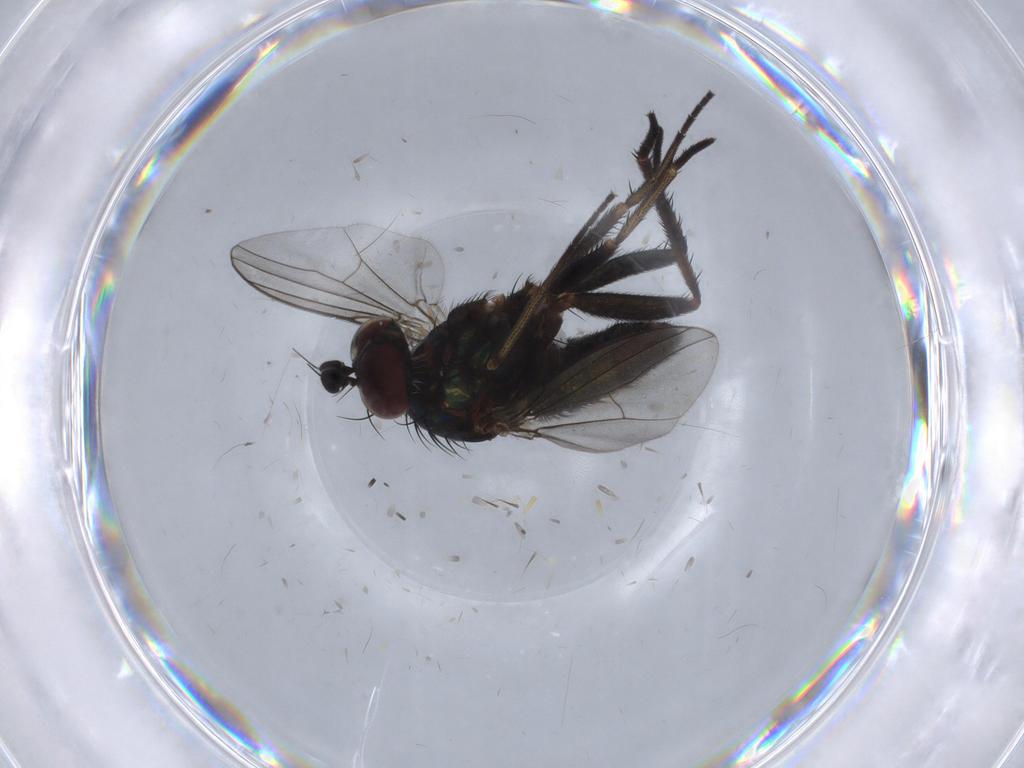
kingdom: Animalia
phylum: Arthropoda
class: Insecta
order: Diptera
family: Dolichopodidae
